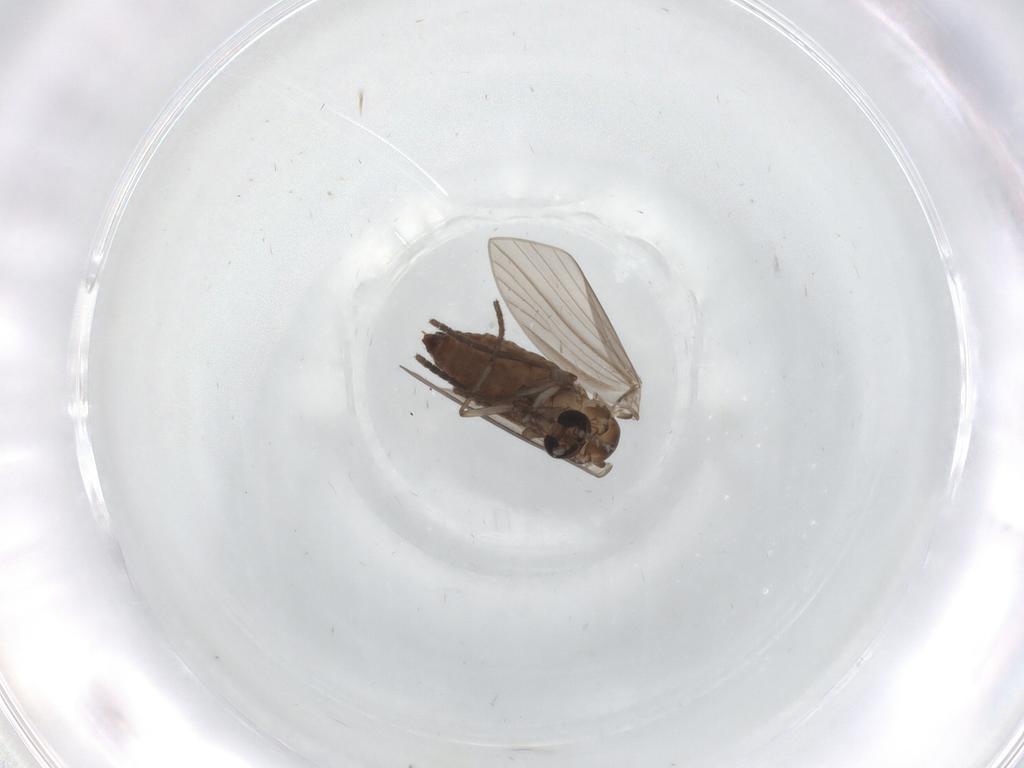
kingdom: Animalia
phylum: Arthropoda
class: Insecta
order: Diptera
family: Psychodidae
